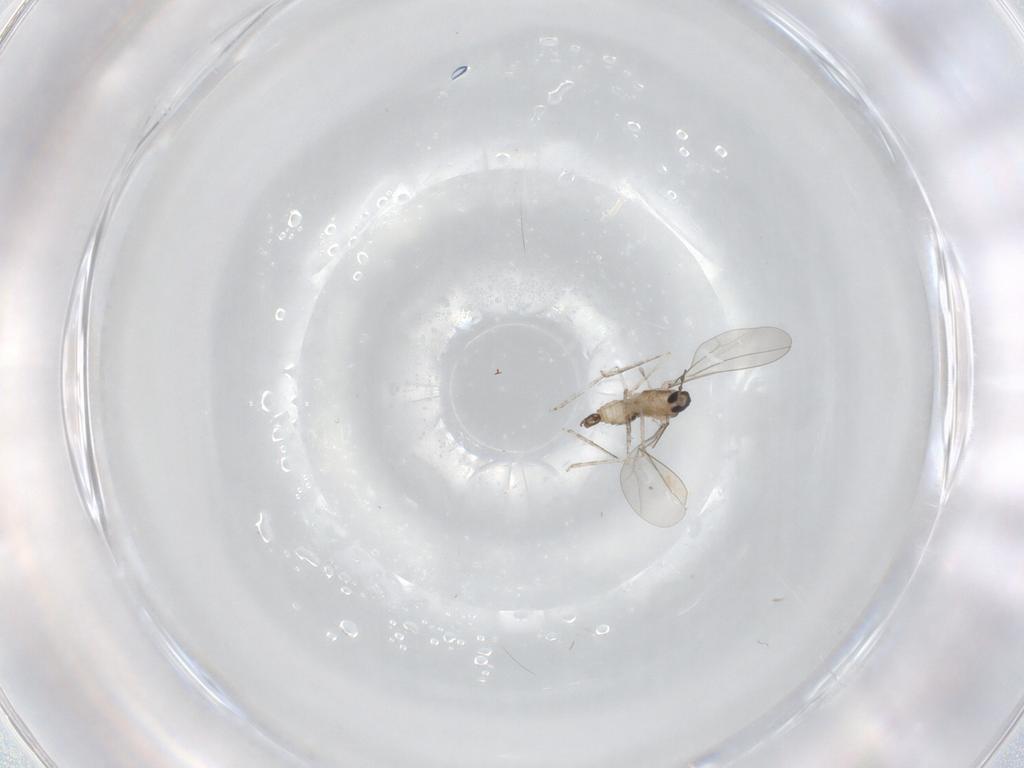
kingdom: Animalia
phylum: Arthropoda
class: Insecta
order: Diptera
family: Cecidomyiidae
